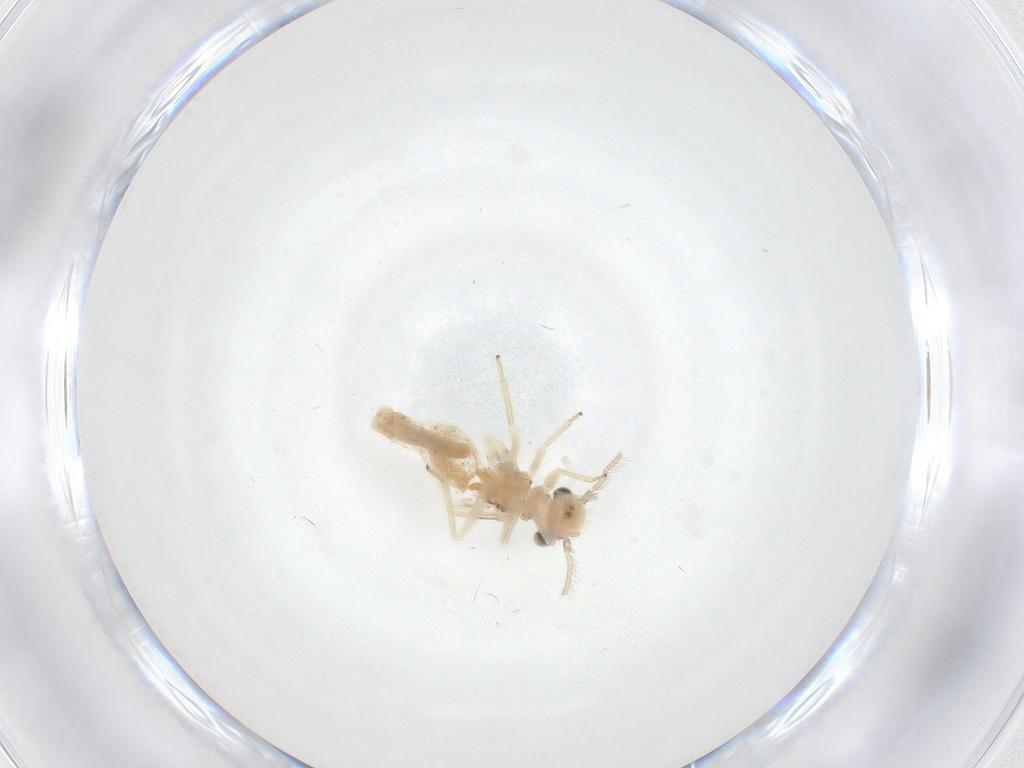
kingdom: Animalia
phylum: Arthropoda
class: Insecta
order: Psocodea
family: Caeciliusidae
